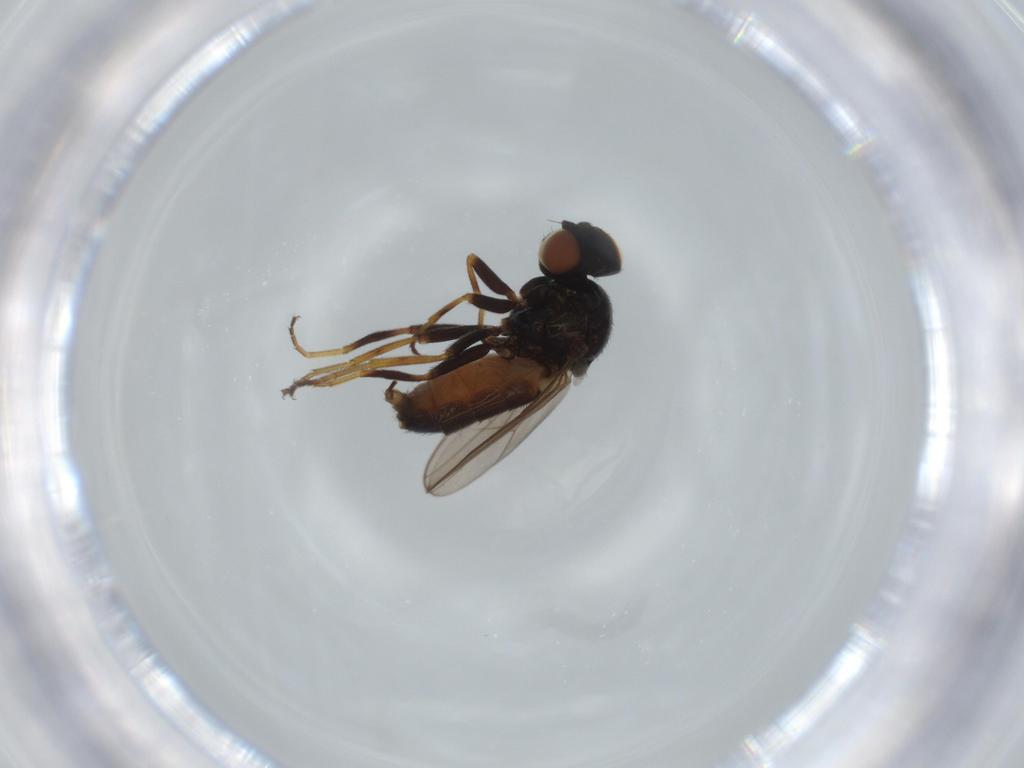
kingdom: Animalia
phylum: Arthropoda
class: Insecta
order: Diptera
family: Chloropidae
